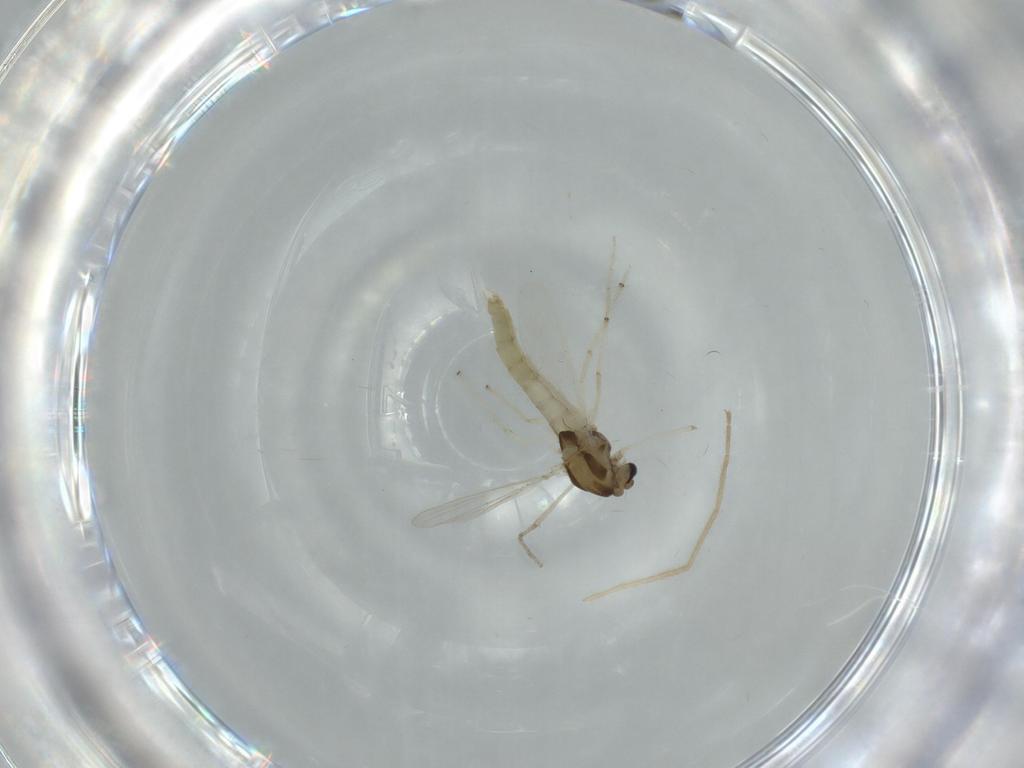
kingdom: Animalia
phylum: Arthropoda
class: Insecta
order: Diptera
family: Chironomidae
